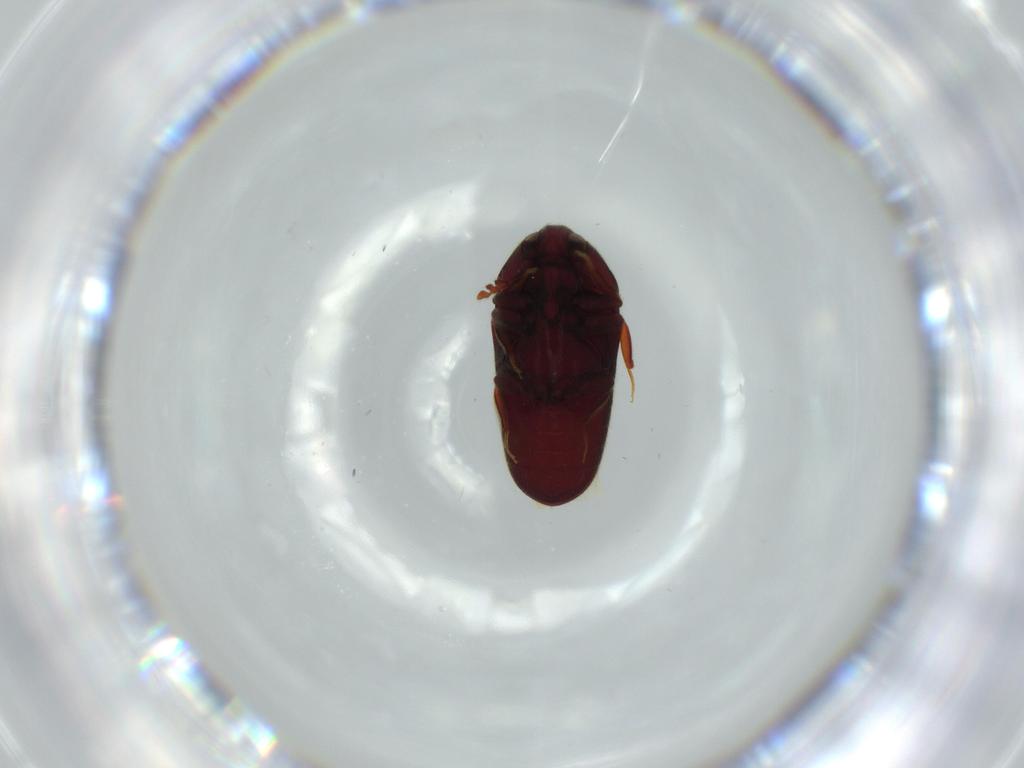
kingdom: Animalia
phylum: Arthropoda
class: Insecta
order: Coleoptera
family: Throscidae
